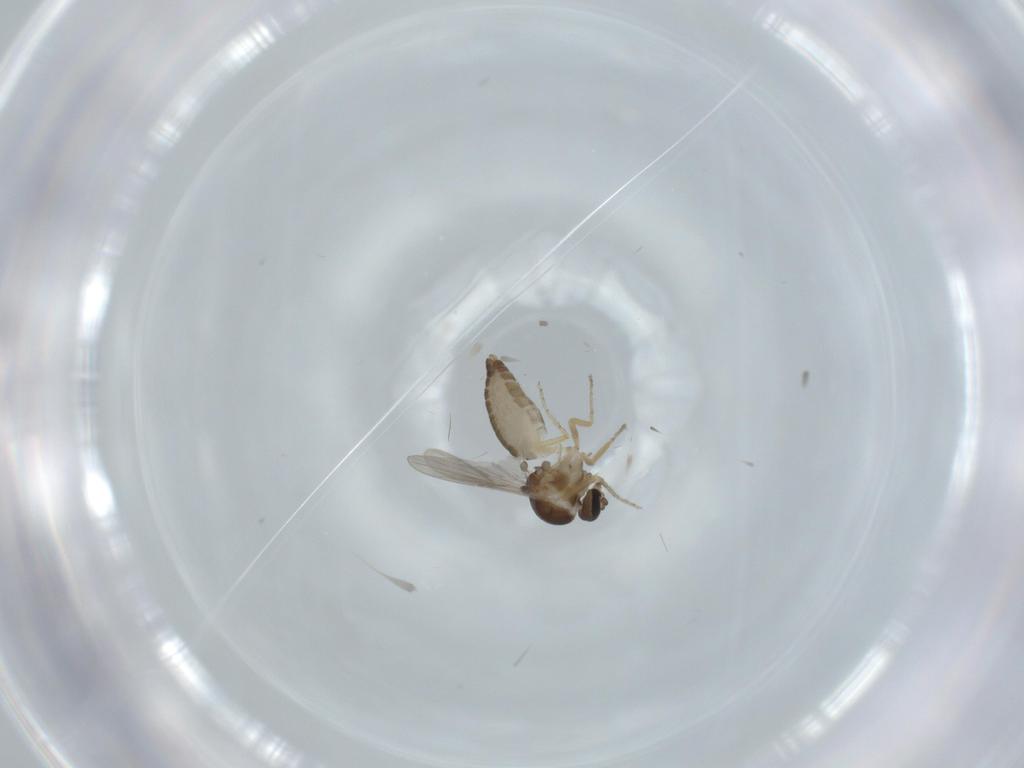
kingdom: Animalia
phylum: Arthropoda
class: Insecta
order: Diptera
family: Ceratopogonidae
